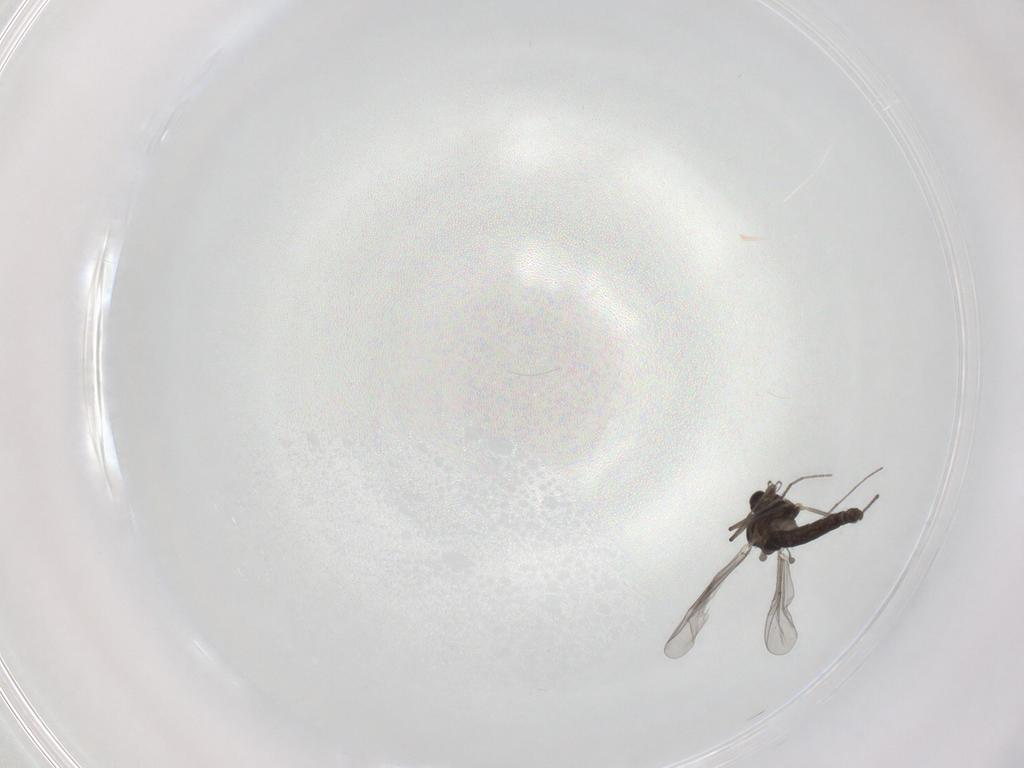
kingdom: Animalia
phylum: Arthropoda
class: Insecta
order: Diptera
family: Chironomidae
